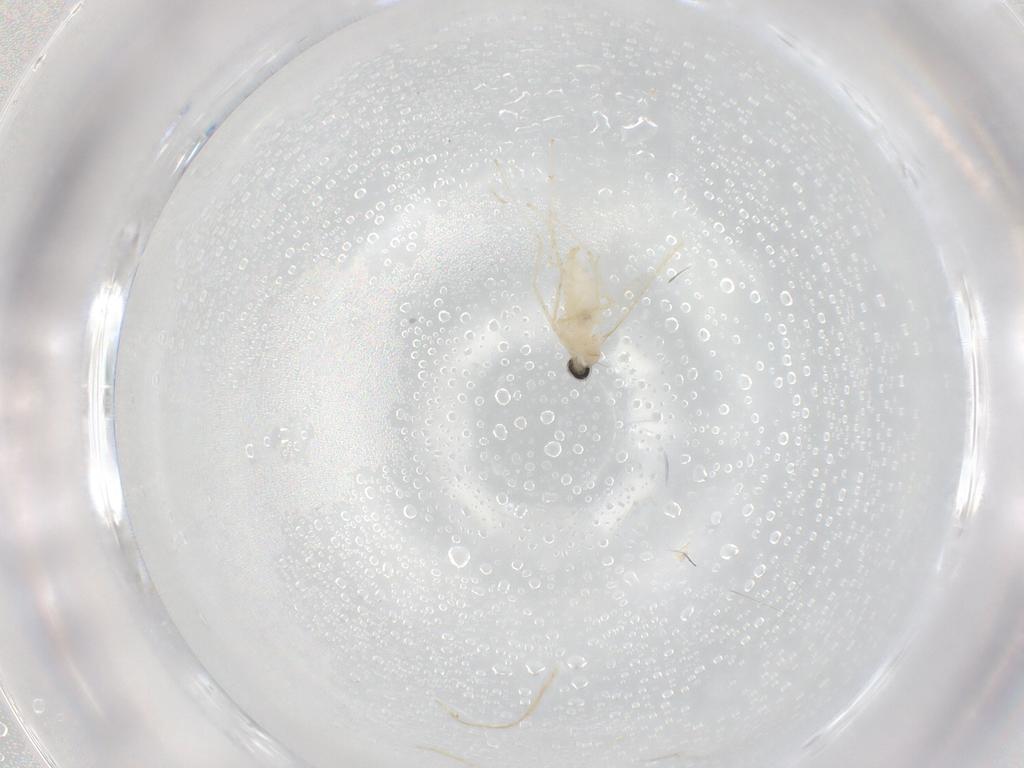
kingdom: Animalia
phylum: Arthropoda
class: Insecta
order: Diptera
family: Cecidomyiidae
